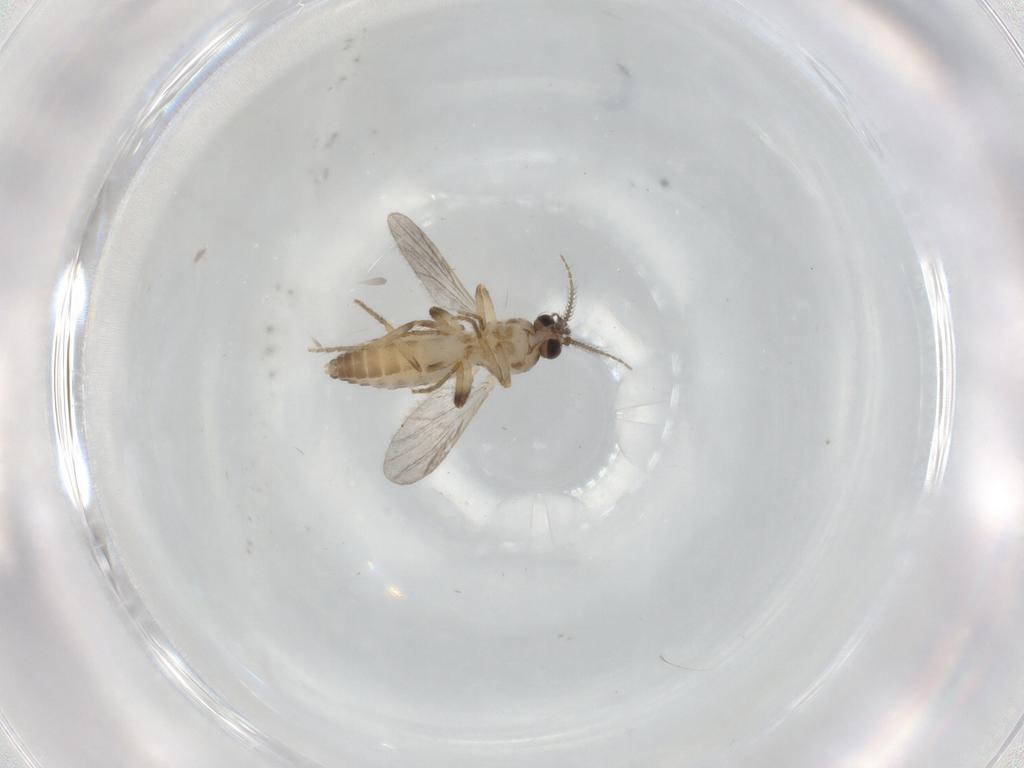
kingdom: Animalia
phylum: Arthropoda
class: Insecta
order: Diptera
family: Ceratopogonidae
